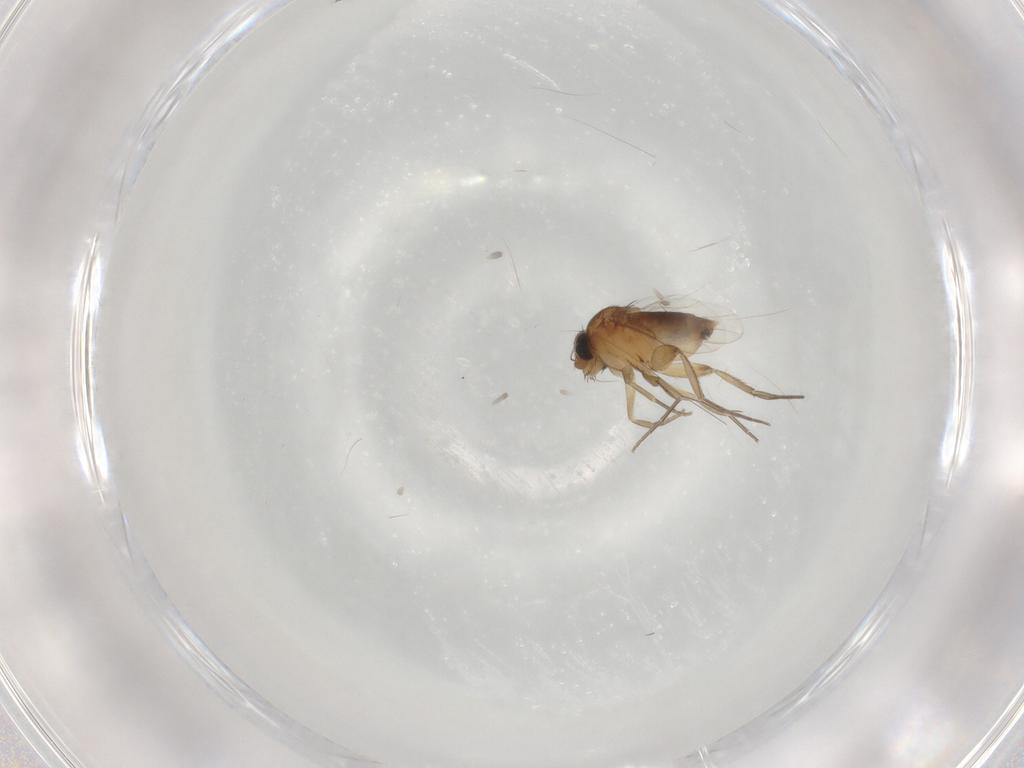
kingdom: Animalia
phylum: Arthropoda
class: Insecta
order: Diptera
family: Phoridae
